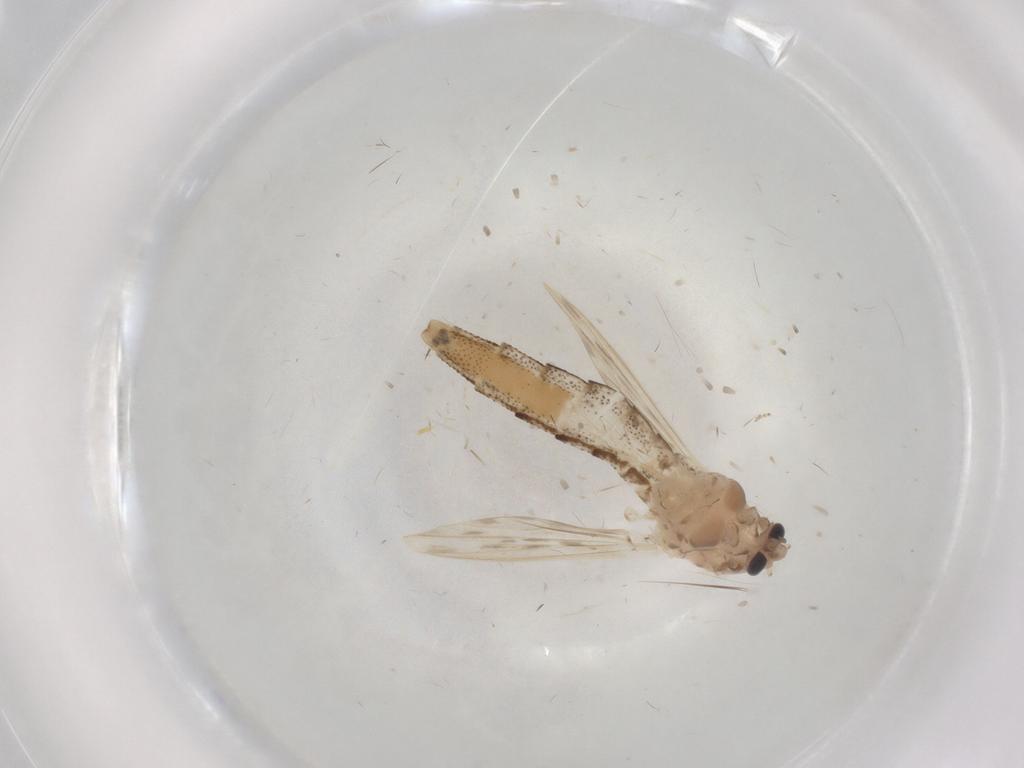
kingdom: Animalia
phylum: Arthropoda
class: Insecta
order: Diptera
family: Chaoboridae
